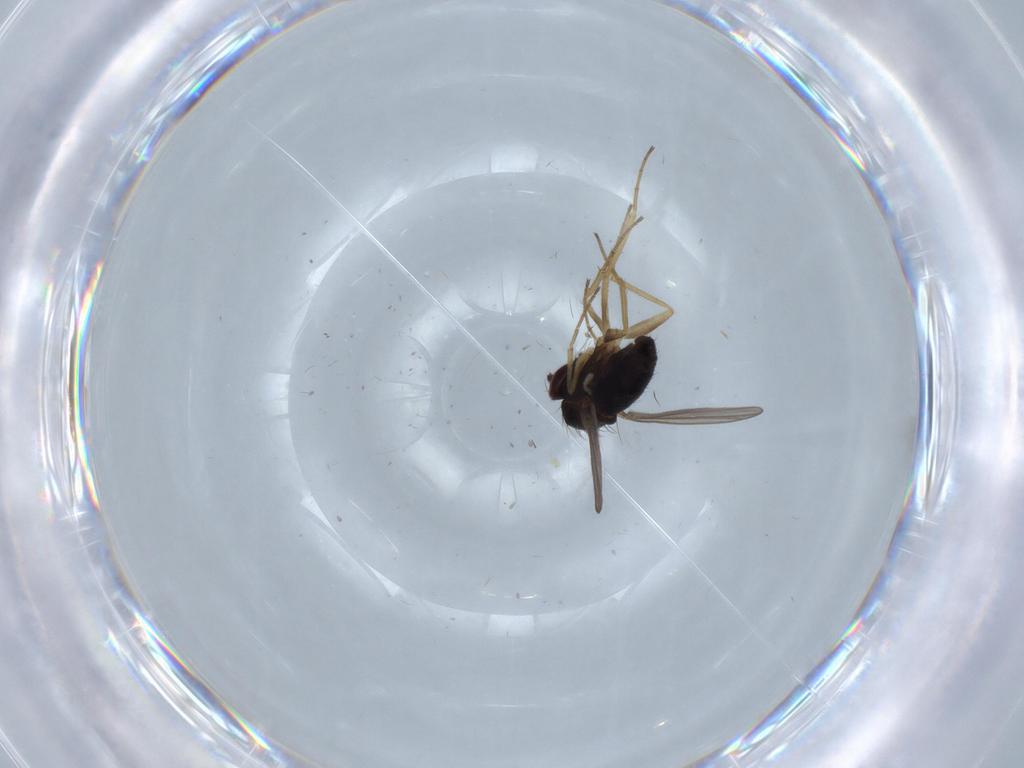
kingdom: Animalia
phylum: Arthropoda
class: Insecta
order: Diptera
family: Dolichopodidae
